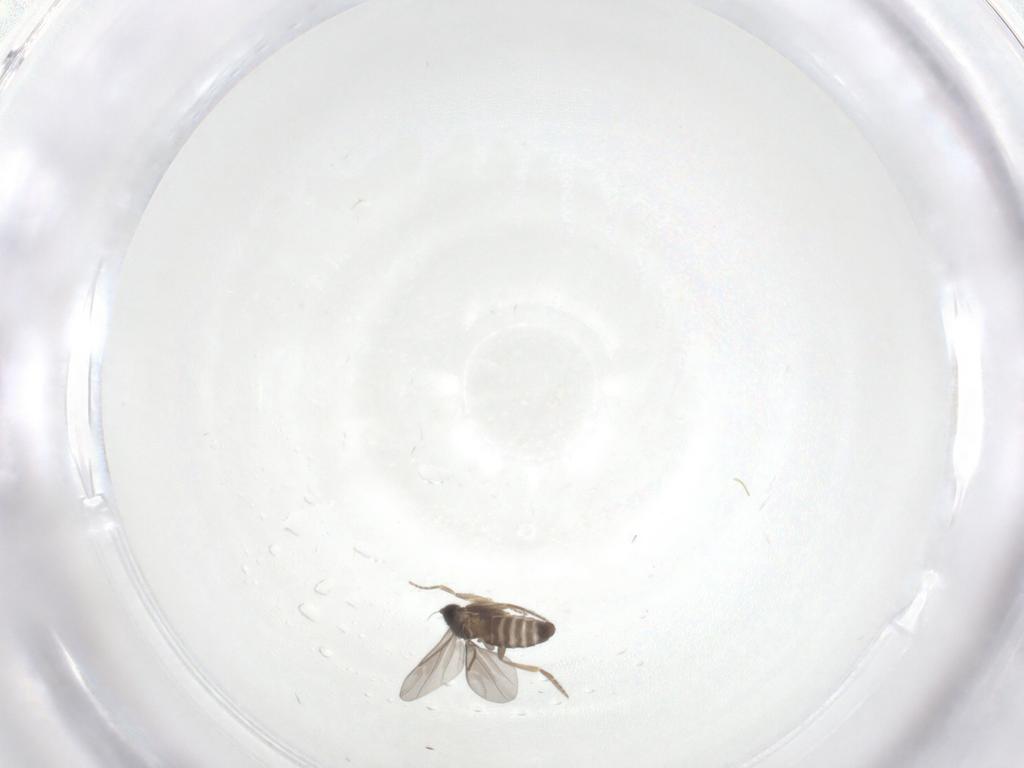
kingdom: Animalia
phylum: Arthropoda
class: Insecta
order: Diptera
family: Phoridae
